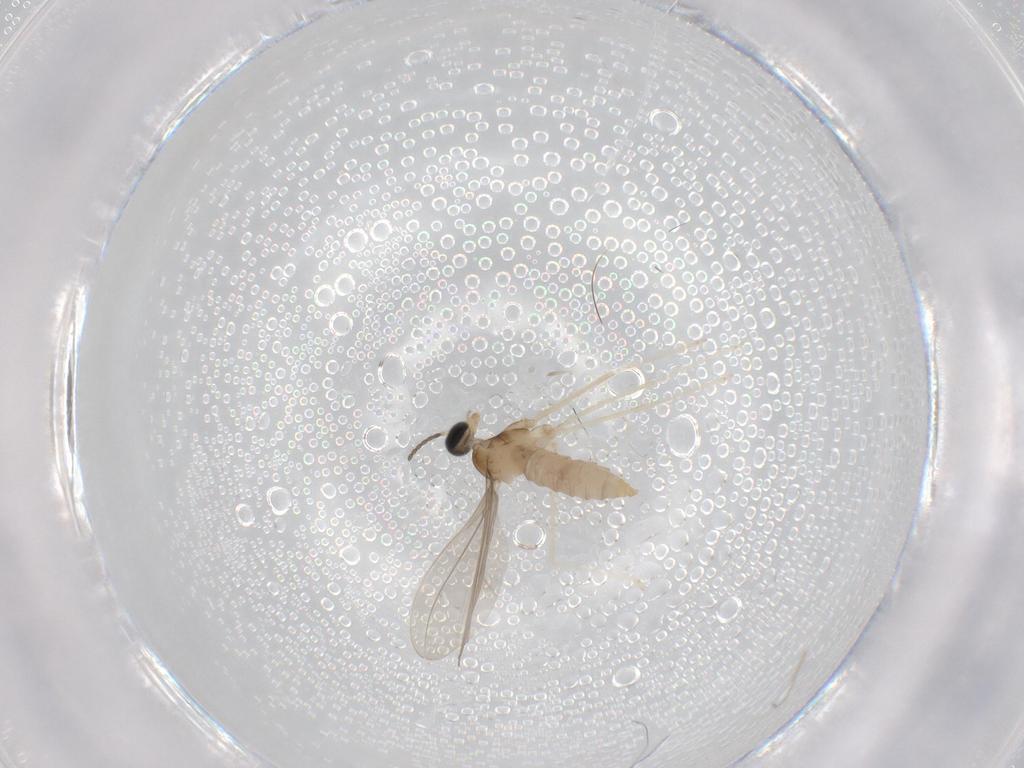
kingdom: Animalia
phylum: Arthropoda
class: Insecta
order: Diptera
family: Cecidomyiidae
